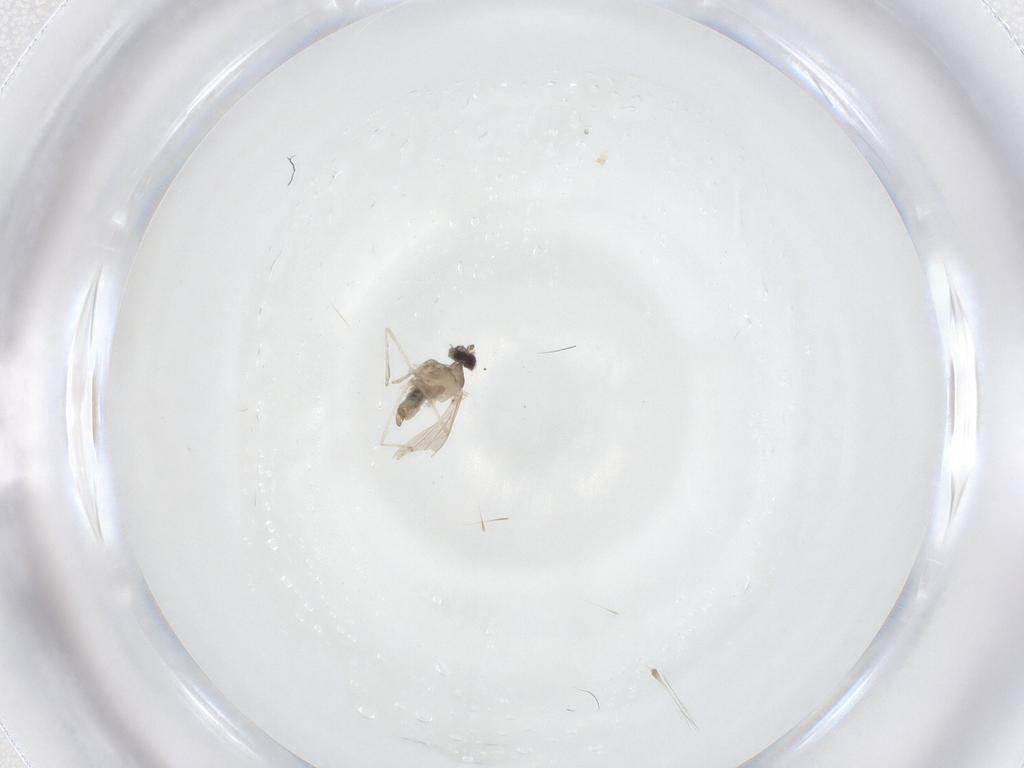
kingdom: Animalia
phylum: Arthropoda
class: Insecta
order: Diptera
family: Cecidomyiidae
